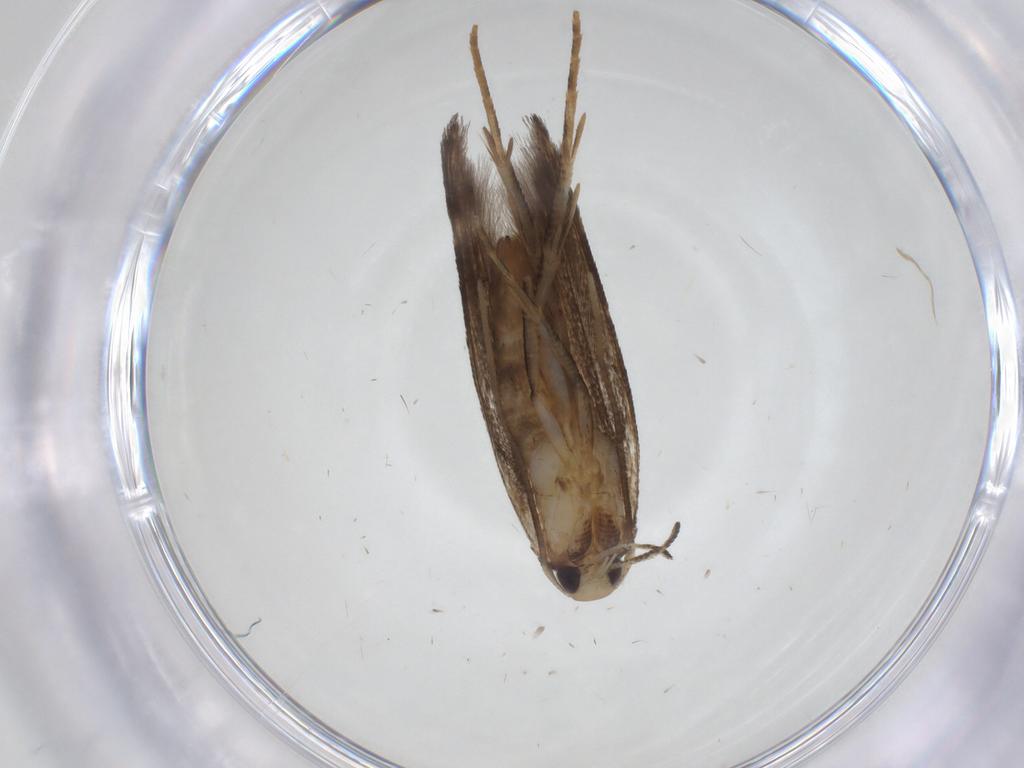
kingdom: Animalia
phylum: Arthropoda
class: Insecta
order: Lepidoptera
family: Cosmopterigidae
